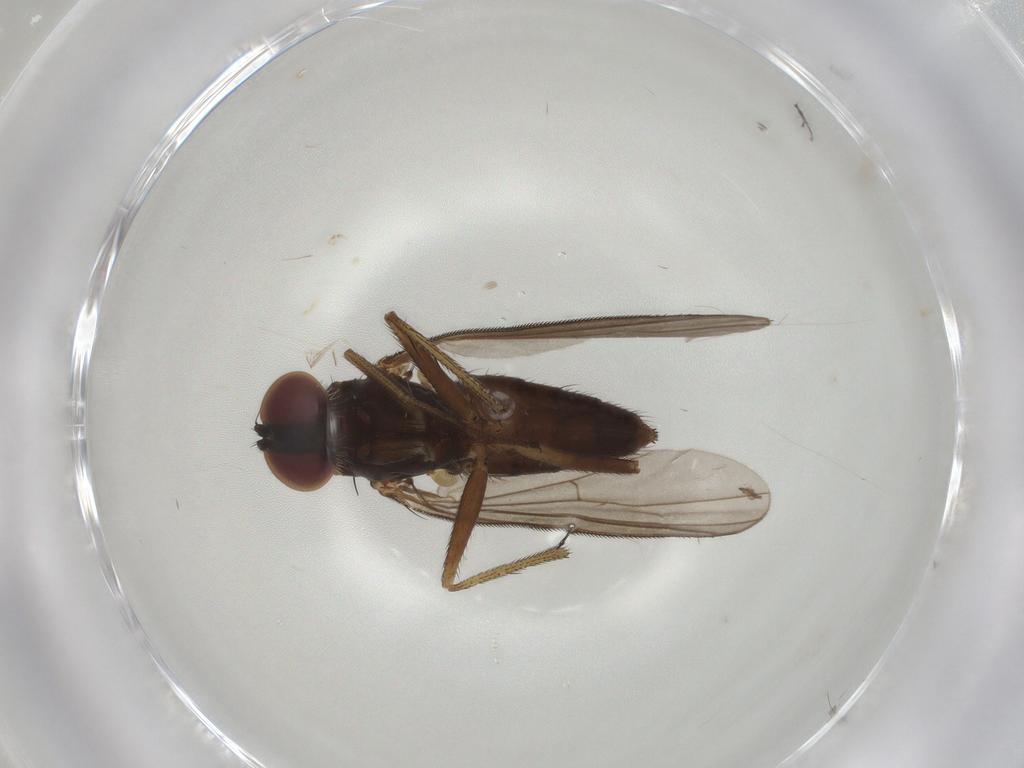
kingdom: Animalia
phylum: Arthropoda
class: Insecta
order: Diptera
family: Dolichopodidae
